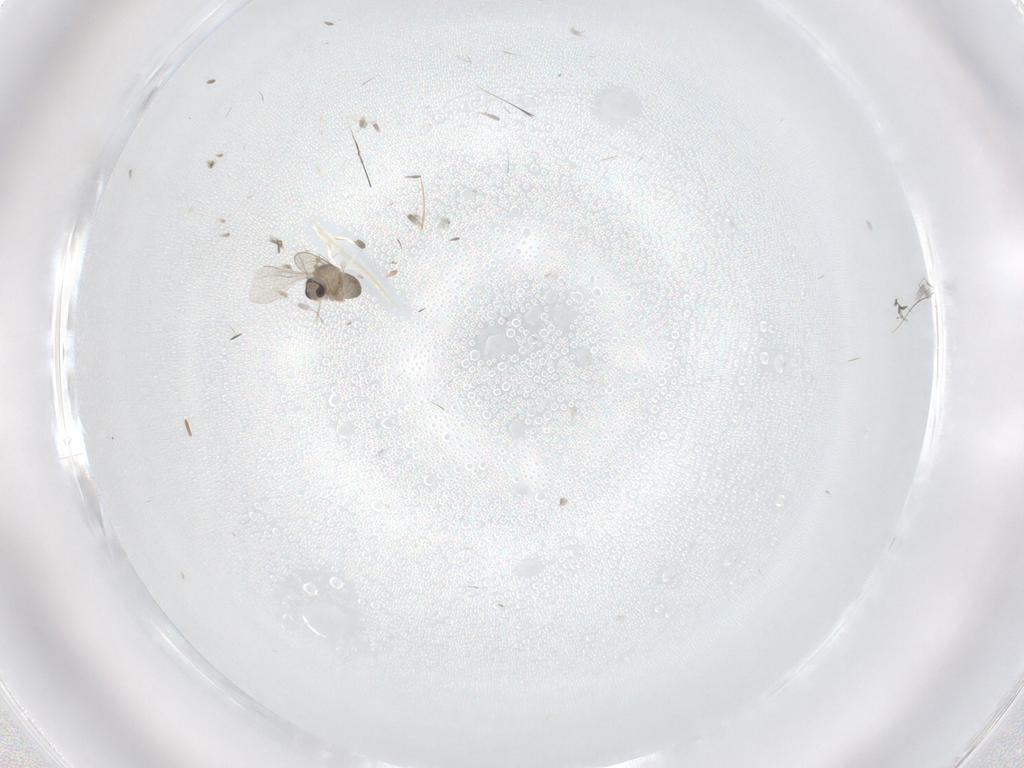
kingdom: Animalia
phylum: Arthropoda
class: Insecta
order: Diptera
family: Cecidomyiidae
